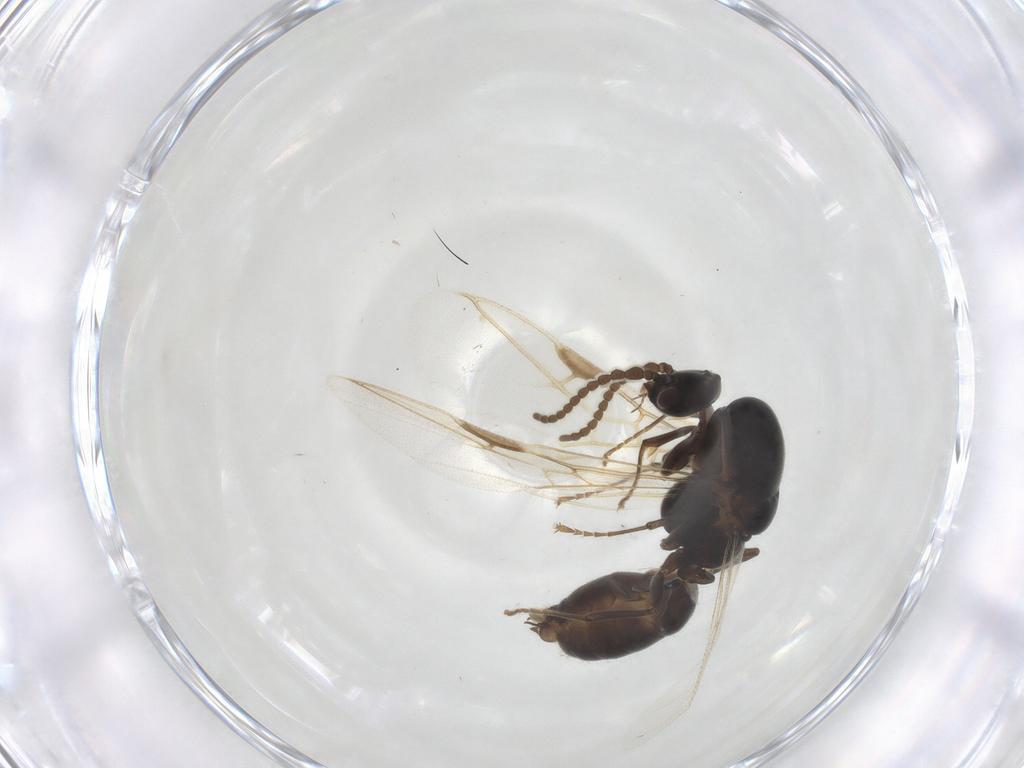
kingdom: Animalia
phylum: Arthropoda
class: Insecta
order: Hymenoptera
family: Formicidae
